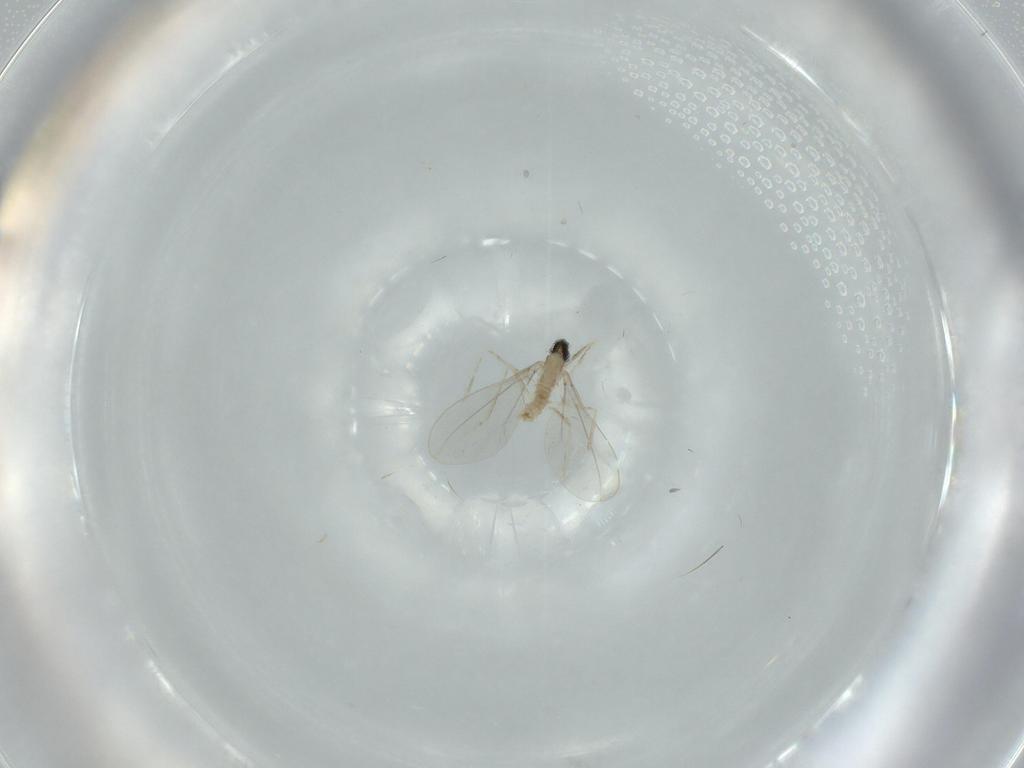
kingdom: Animalia
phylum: Arthropoda
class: Insecta
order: Diptera
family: Cecidomyiidae
